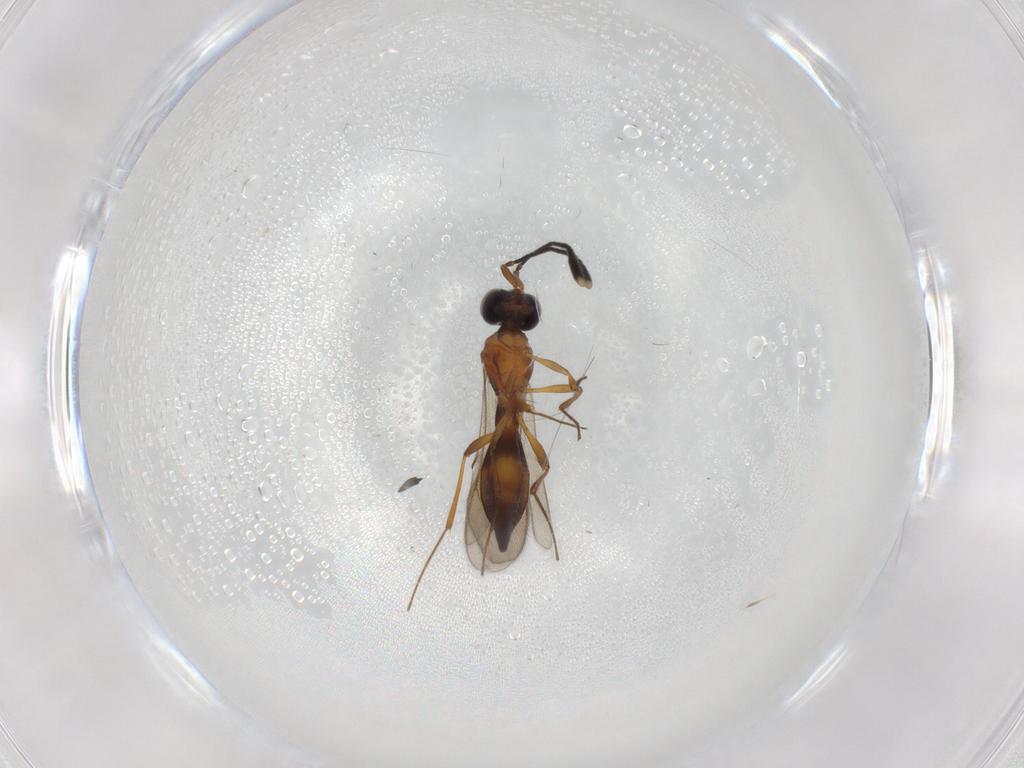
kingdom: Animalia
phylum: Arthropoda
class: Insecta
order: Hymenoptera
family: Scelionidae
